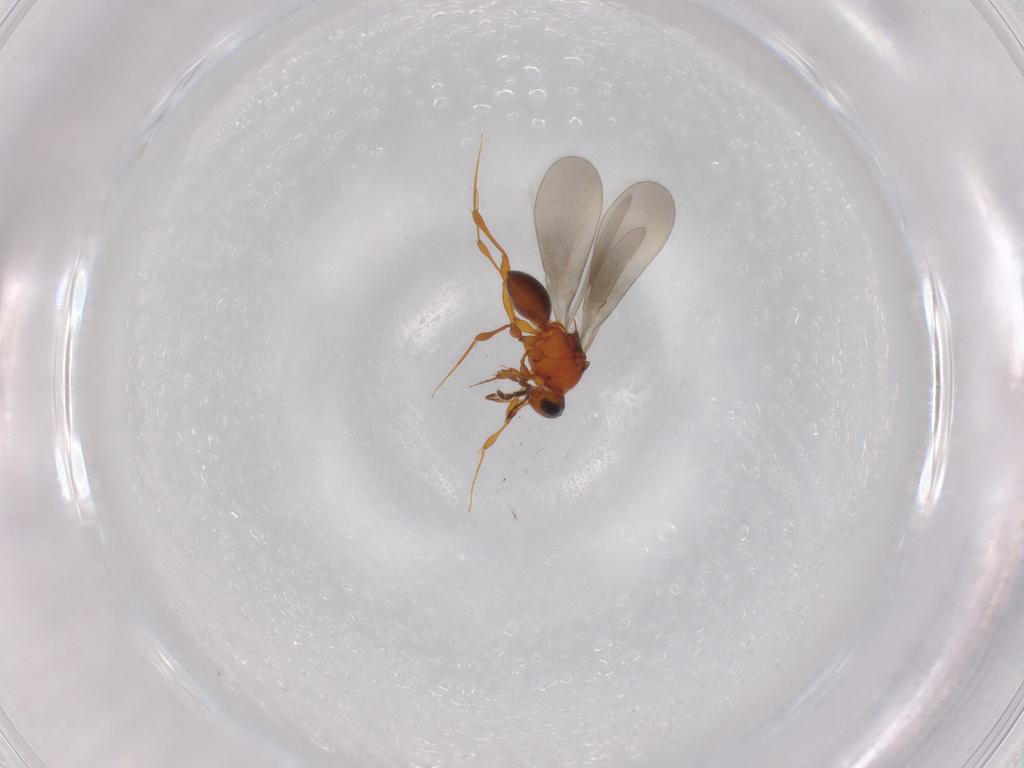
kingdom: Animalia
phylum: Arthropoda
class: Insecta
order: Hymenoptera
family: Platygastridae
